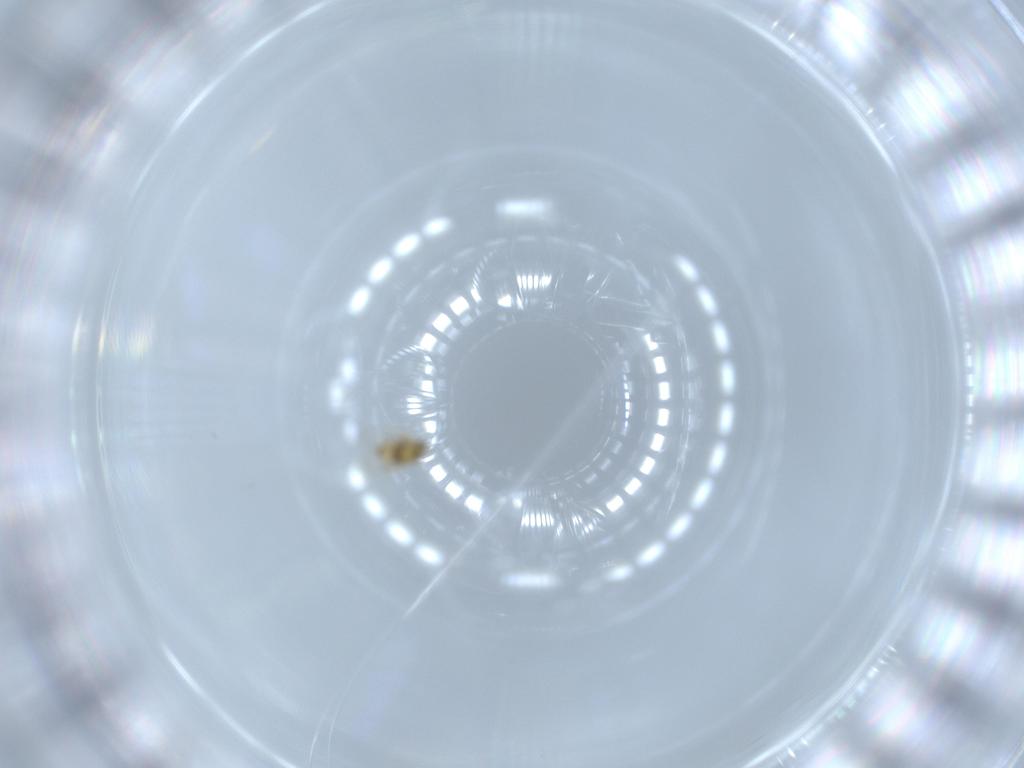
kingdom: Animalia
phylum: Arthropoda
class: Insecta
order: Hymenoptera
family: Aphelinidae
